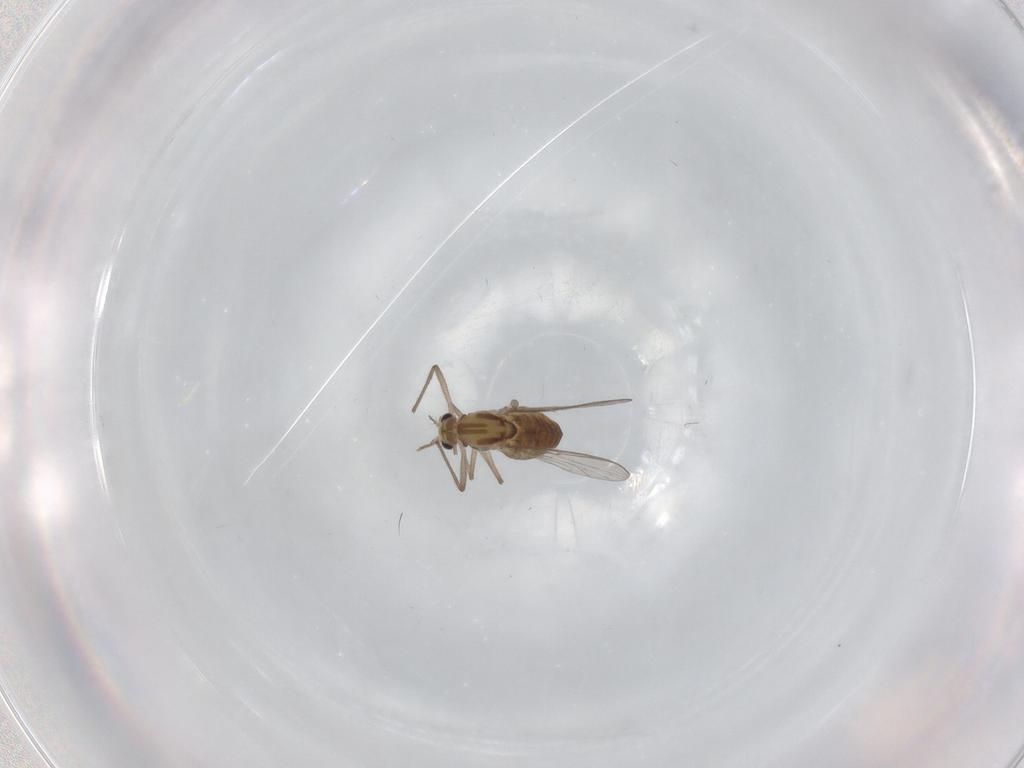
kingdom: Animalia
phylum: Arthropoda
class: Insecta
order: Diptera
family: Chironomidae
